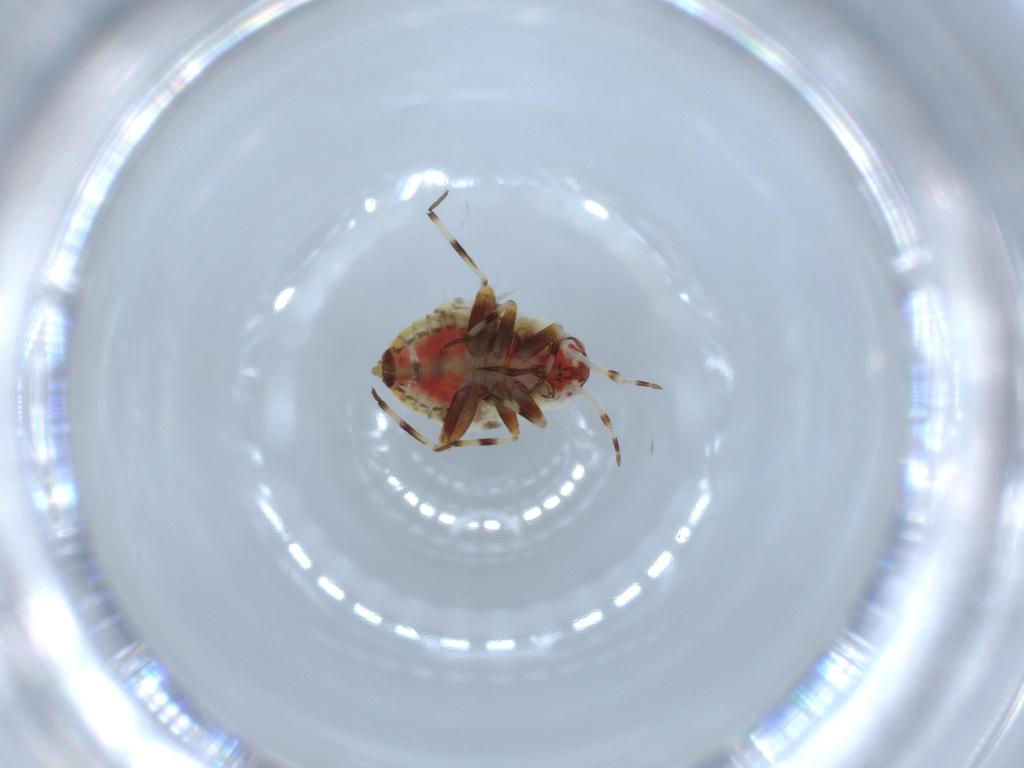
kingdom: Animalia
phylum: Arthropoda
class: Insecta
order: Hemiptera
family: Miridae
